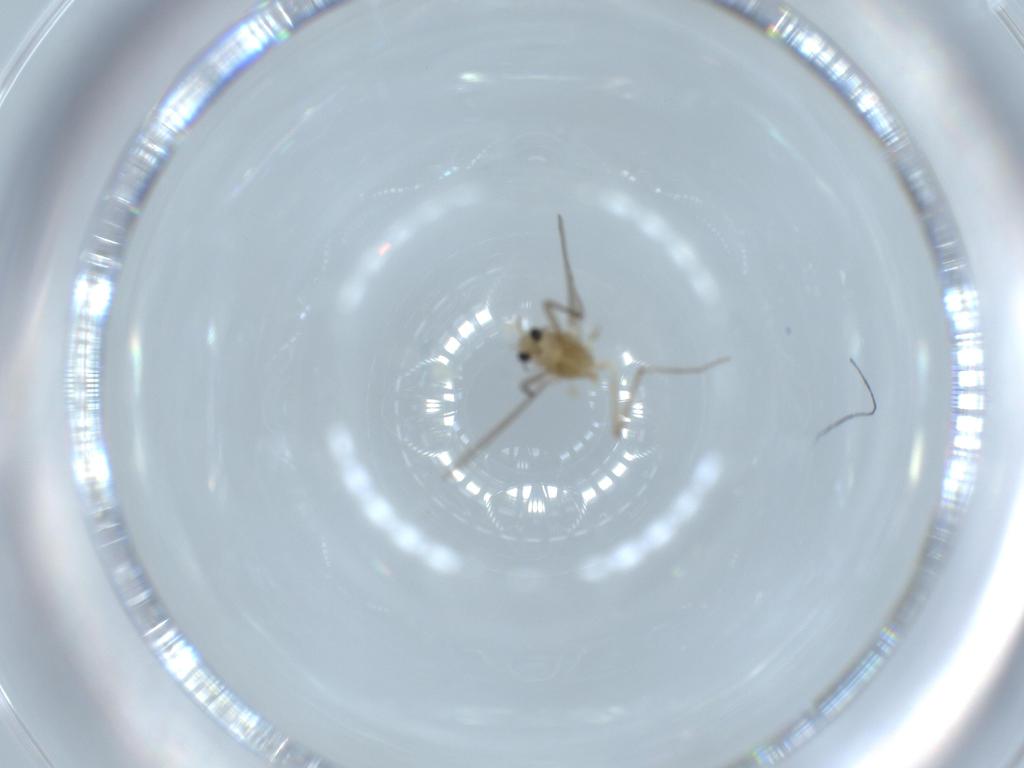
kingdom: Animalia
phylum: Arthropoda
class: Insecta
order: Diptera
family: Chironomidae
